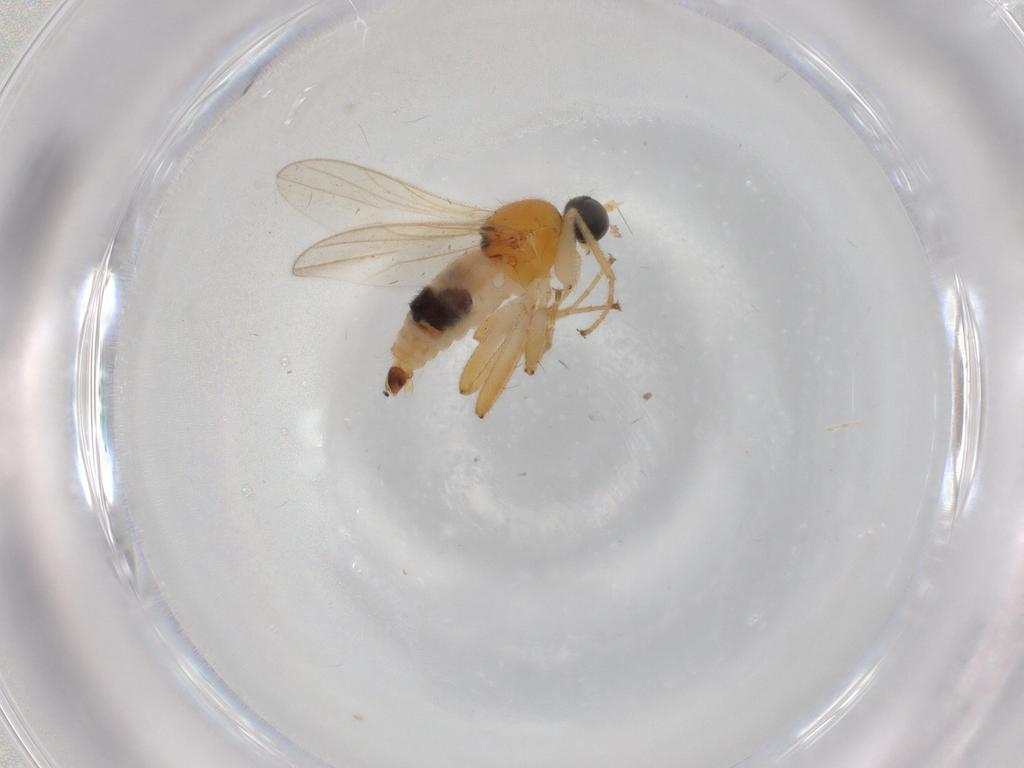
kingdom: Animalia
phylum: Arthropoda
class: Insecta
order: Diptera
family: Hybotidae
